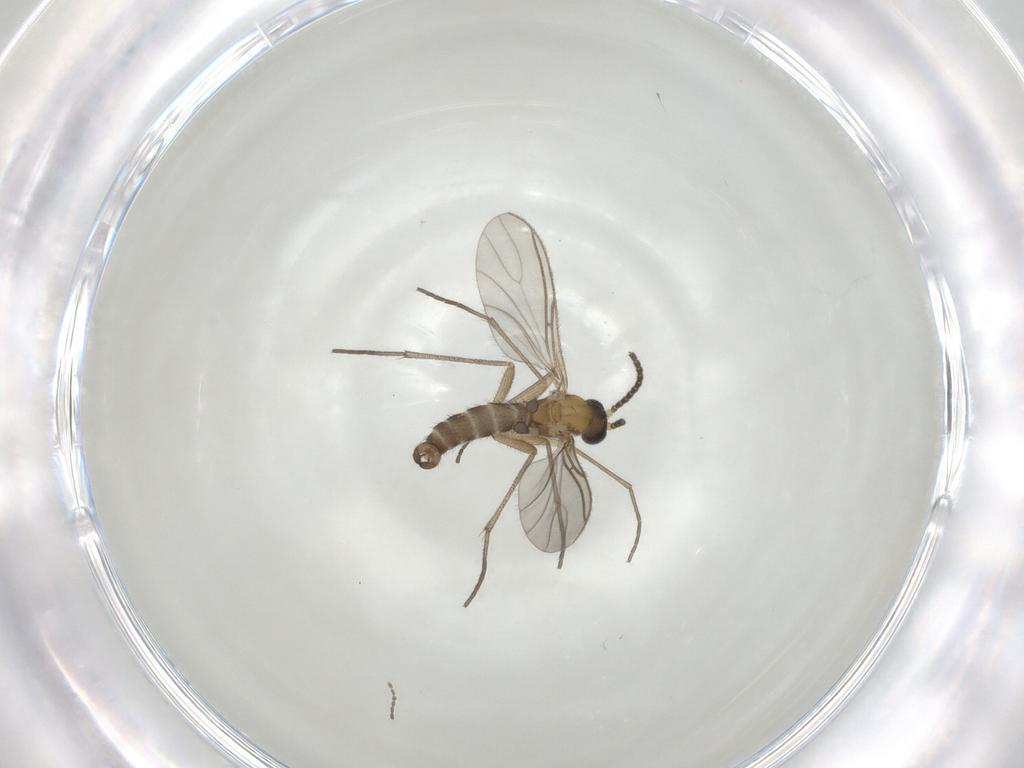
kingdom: Animalia
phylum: Arthropoda
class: Insecta
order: Diptera
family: Sciaridae
